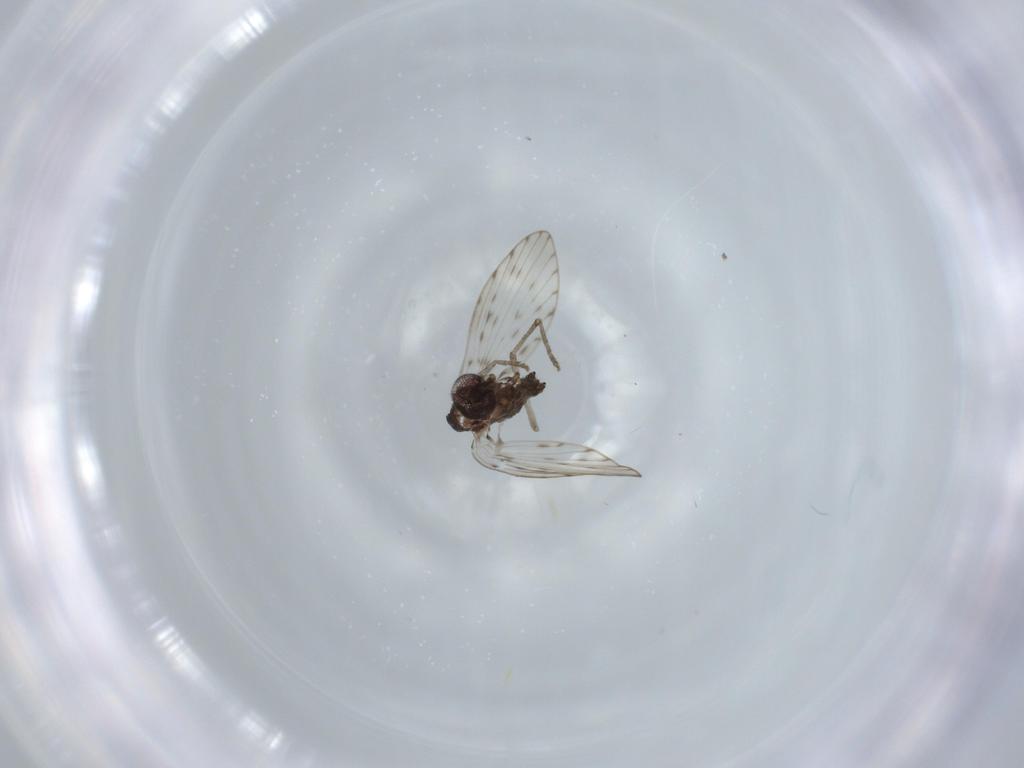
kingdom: Animalia
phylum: Arthropoda
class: Insecta
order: Diptera
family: Psychodidae
